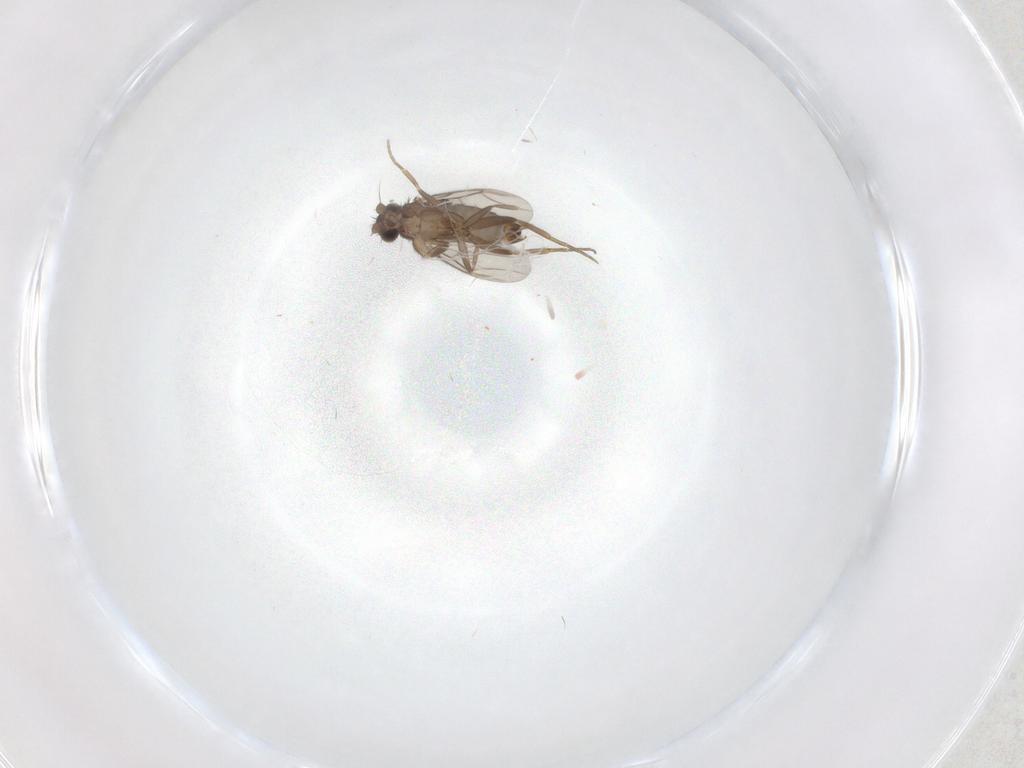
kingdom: Animalia
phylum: Arthropoda
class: Insecta
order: Diptera
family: Phoridae
